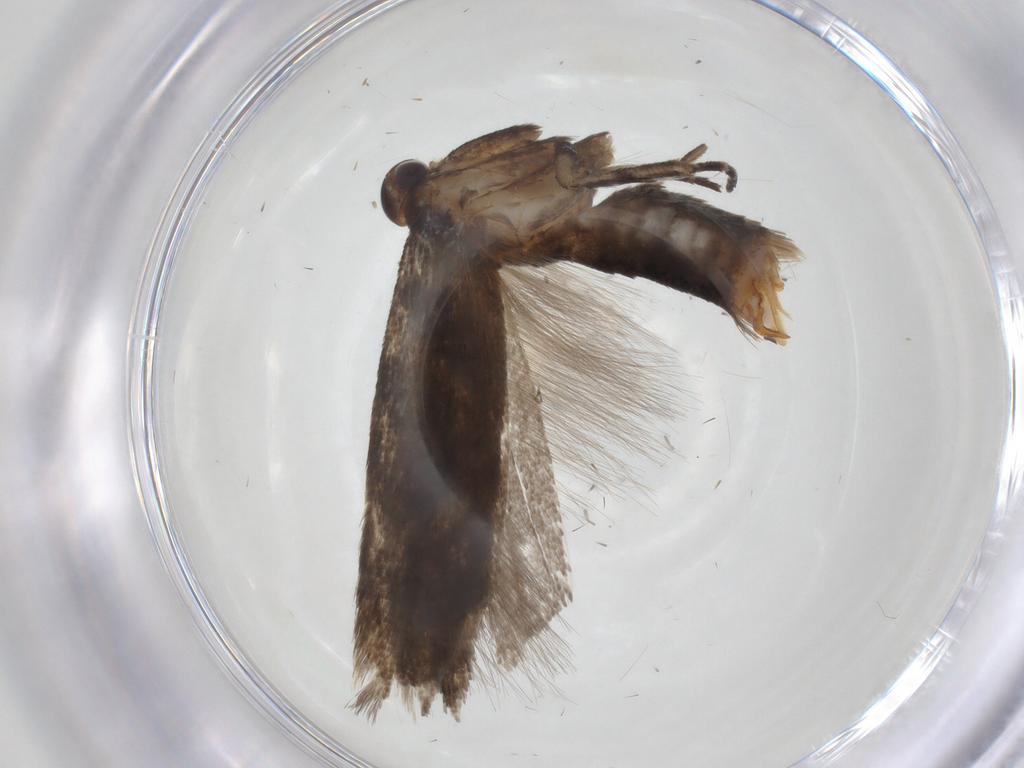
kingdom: Animalia
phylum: Arthropoda
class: Insecta
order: Lepidoptera
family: Gelechiidae
